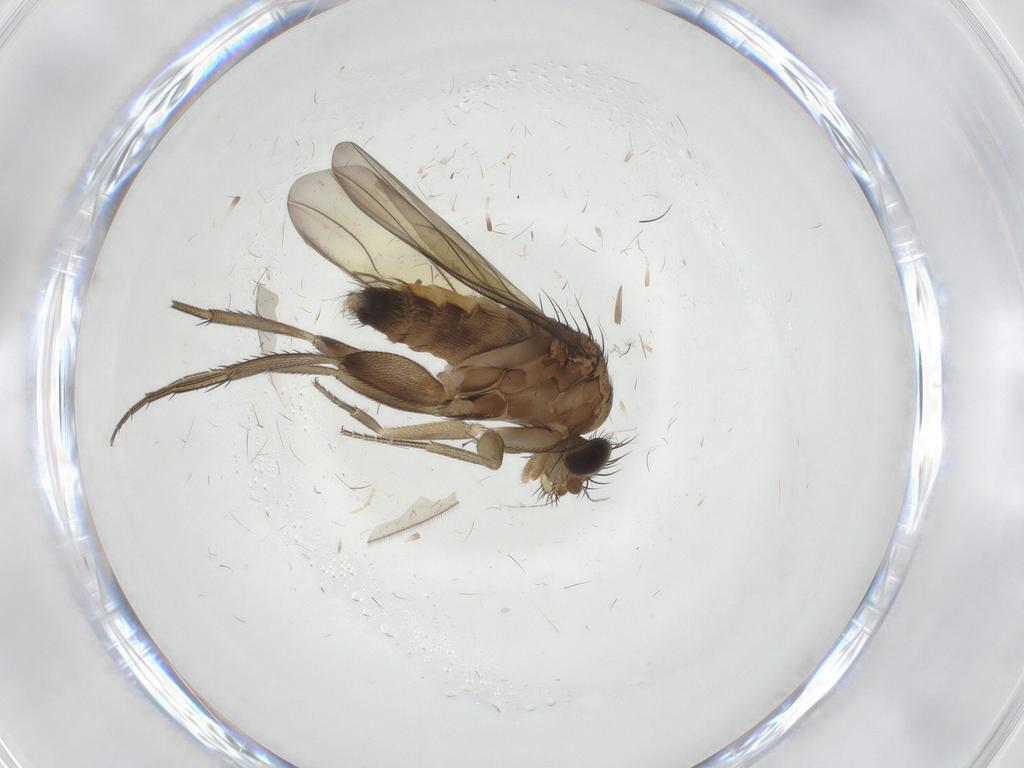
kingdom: Animalia
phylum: Arthropoda
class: Insecta
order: Diptera
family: Phoridae
